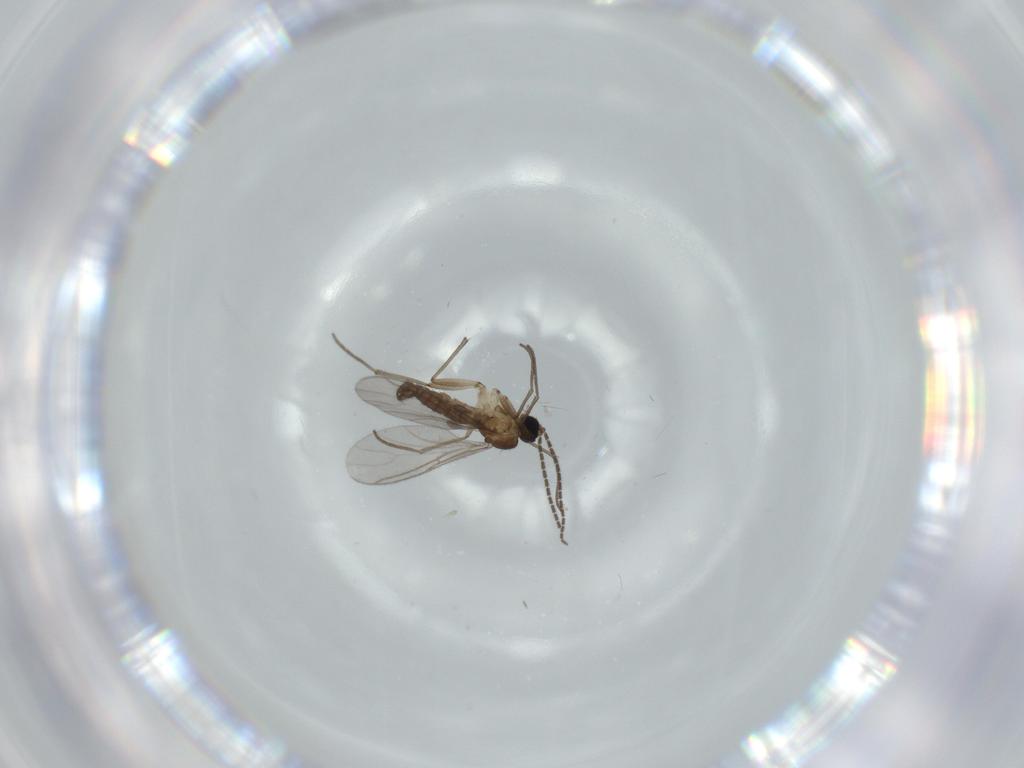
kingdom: Animalia
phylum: Arthropoda
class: Insecta
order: Diptera
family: Sciaridae
